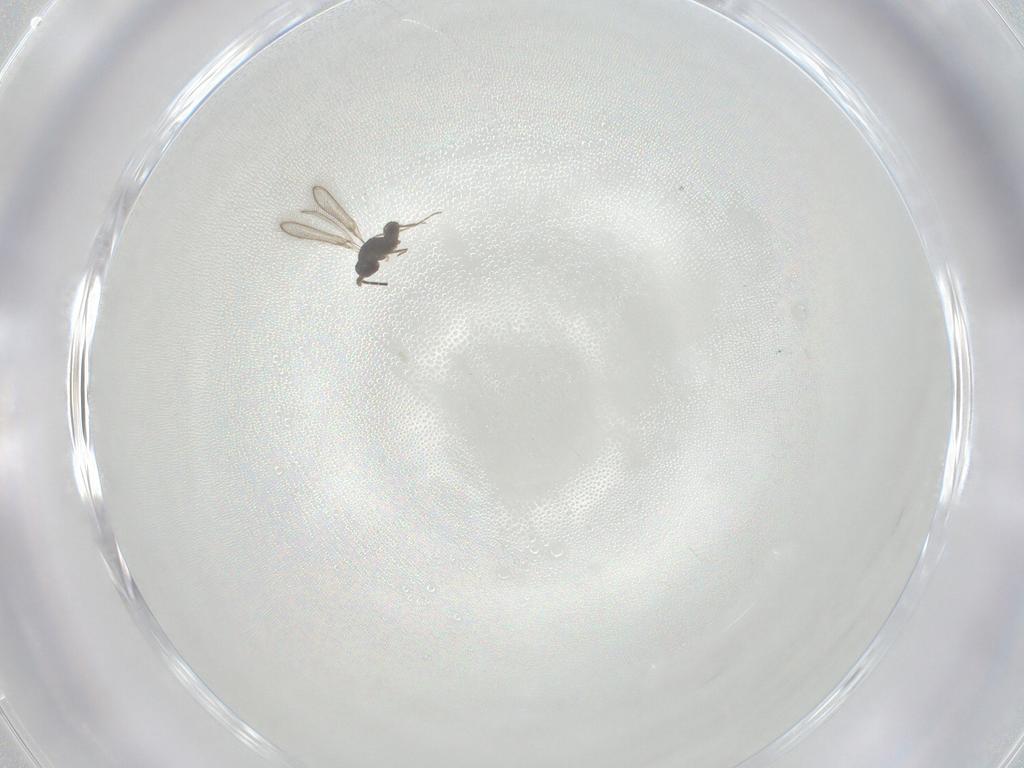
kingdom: Animalia
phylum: Arthropoda
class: Insecta
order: Hymenoptera
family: Mymaridae
